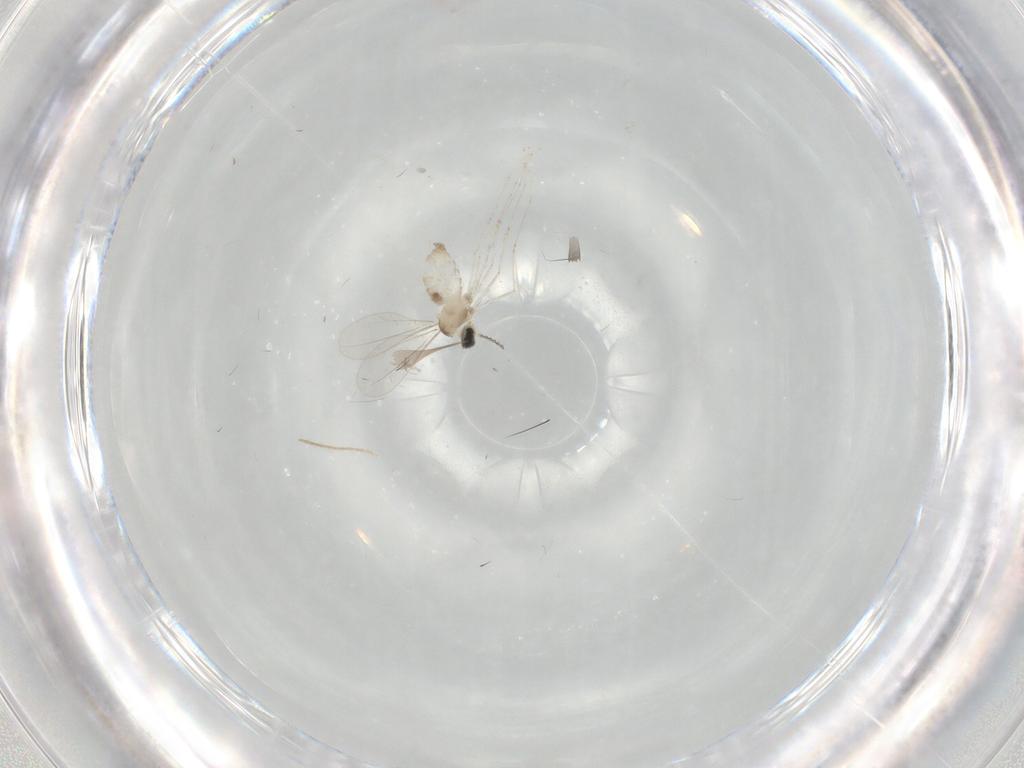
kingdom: Animalia
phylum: Arthropoda
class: Insecta
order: Diptera
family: Cecidomyiidae
